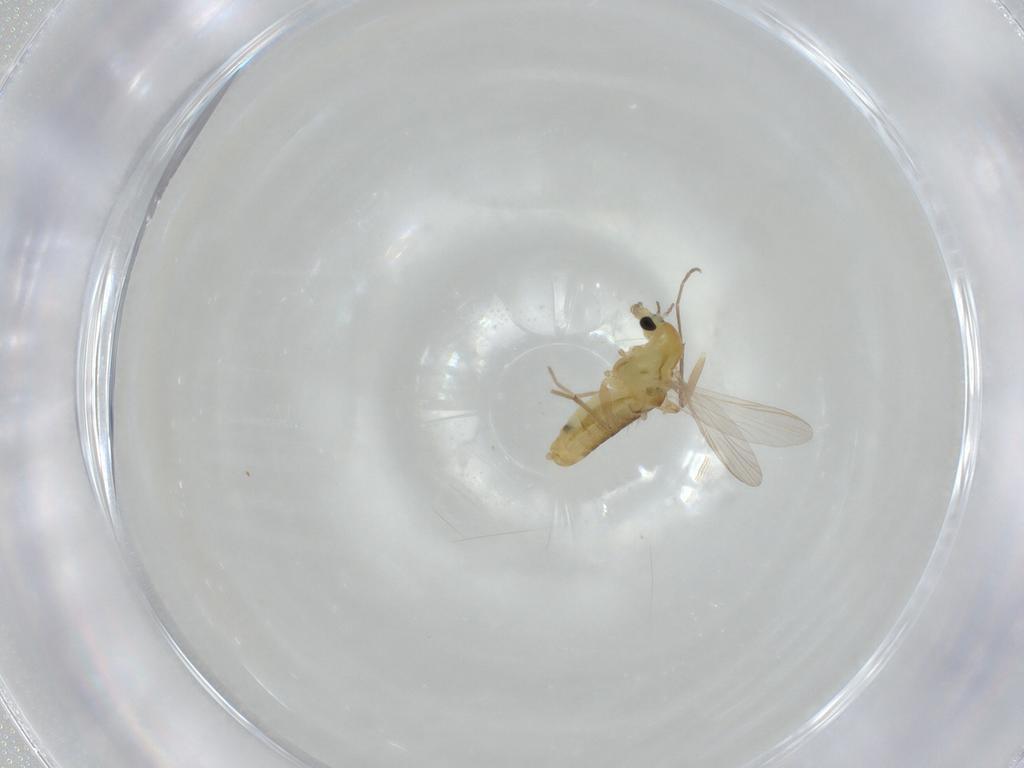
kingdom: Animalia
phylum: Arthropoda
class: Insecta
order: Diptera
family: Chironomidae
